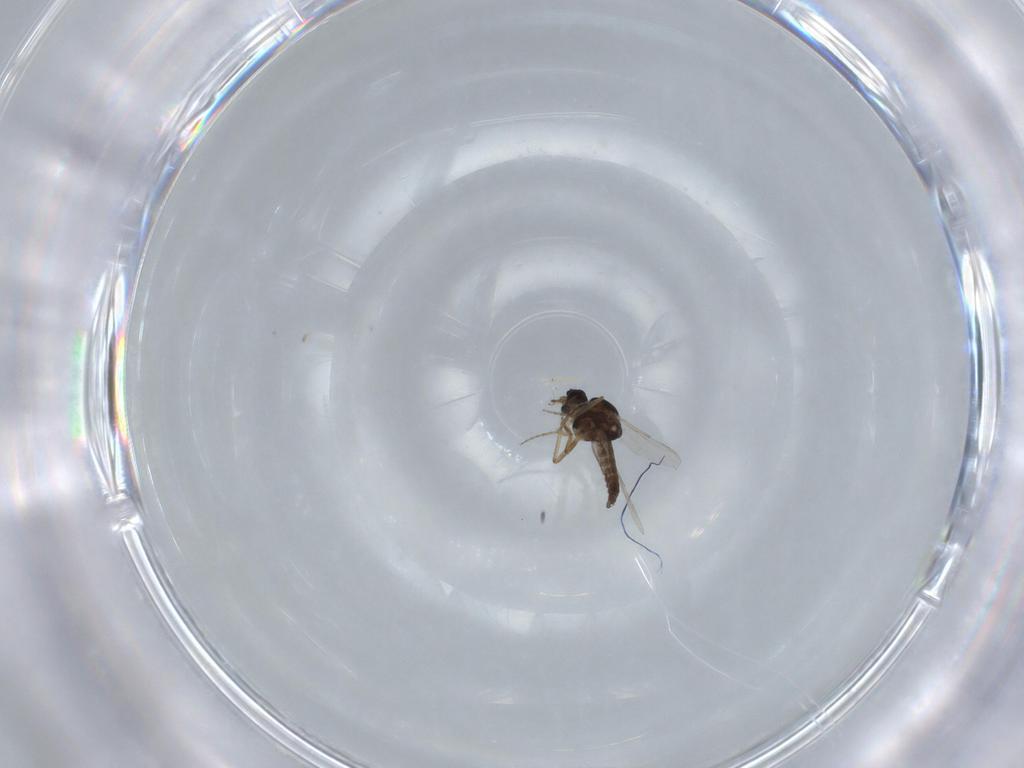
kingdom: Animalia
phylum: Arthropoda
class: Insecta
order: Diptera
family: Ceratopogonidae
